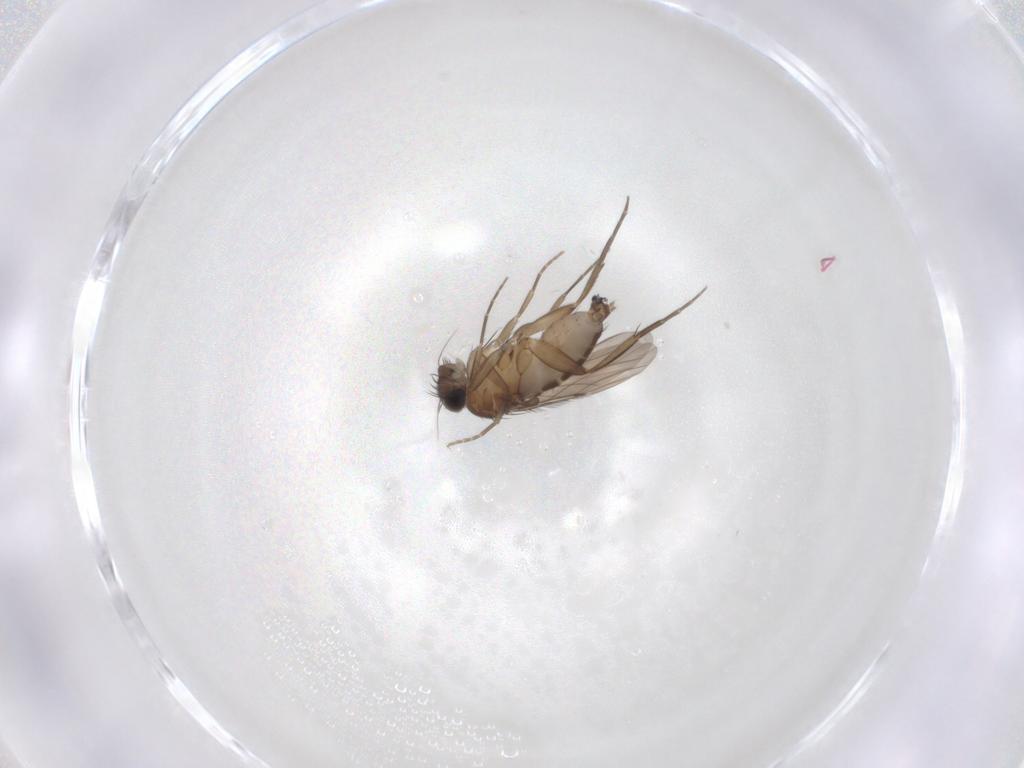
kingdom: Animalia
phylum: Arthropoda
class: Insecta
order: Diptera
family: Phoridae
